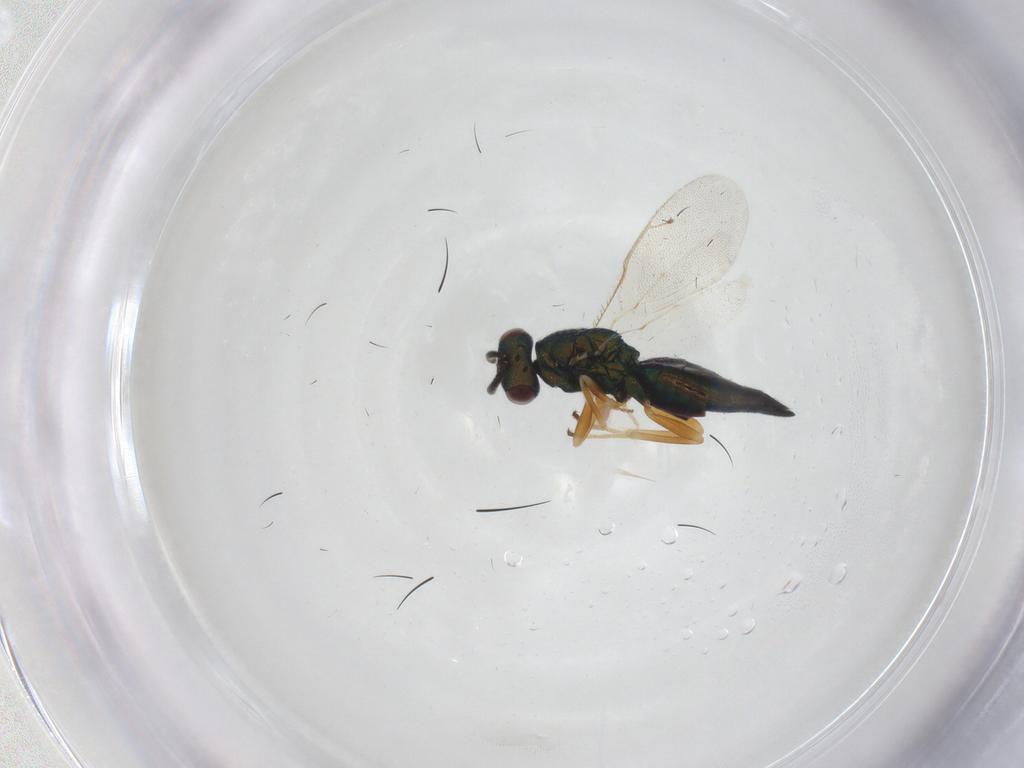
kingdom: Animalia
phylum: Arthropoda
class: Insecta
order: Hymenoptera
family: Pteromalidae
